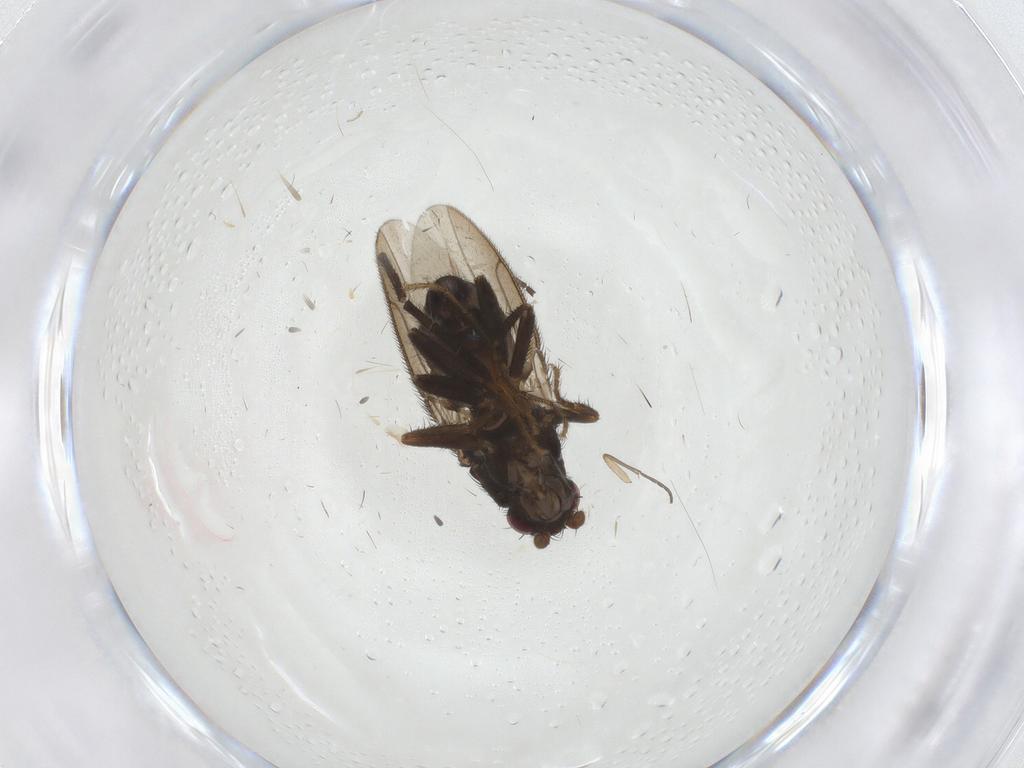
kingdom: Animalia
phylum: Arthropoda
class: Insecta
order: Diptera
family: Sphaeroceridae
